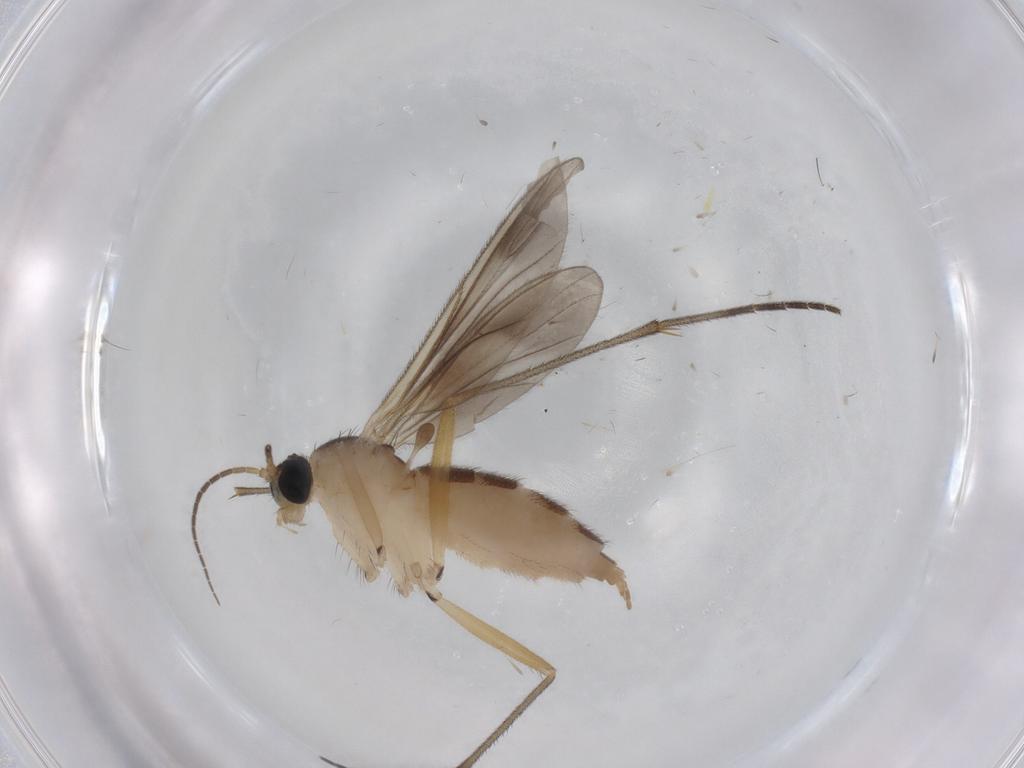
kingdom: Animalia
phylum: Arthropoda
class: Insecta
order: Diptera
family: Sciaridae
